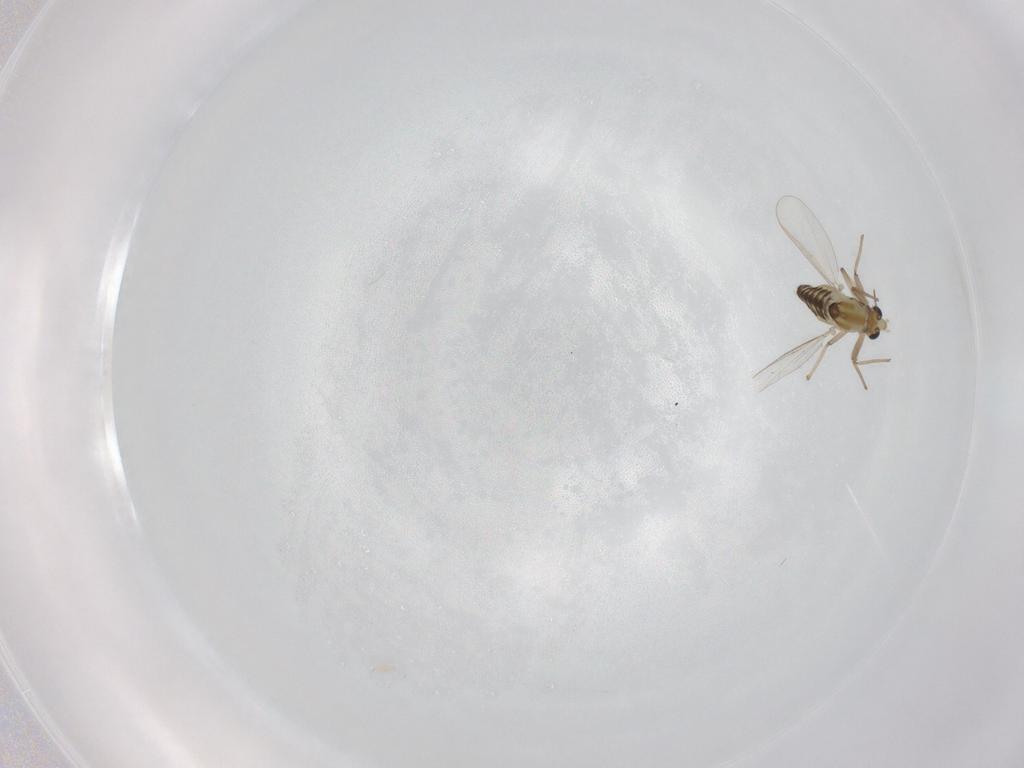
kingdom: Animalia
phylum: Arthropoda
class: Insecta
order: Diptera
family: Chironomidae
